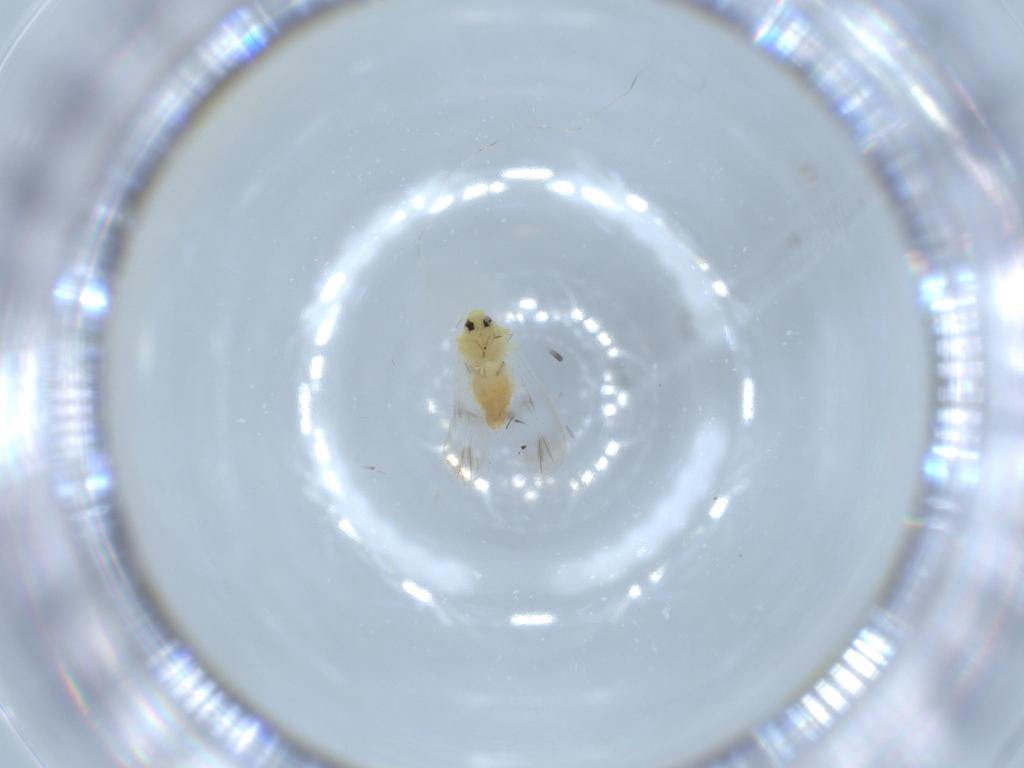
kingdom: Animalia
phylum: Arthropoda
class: Insecta
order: Hemiptera
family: Aleyrodidae
